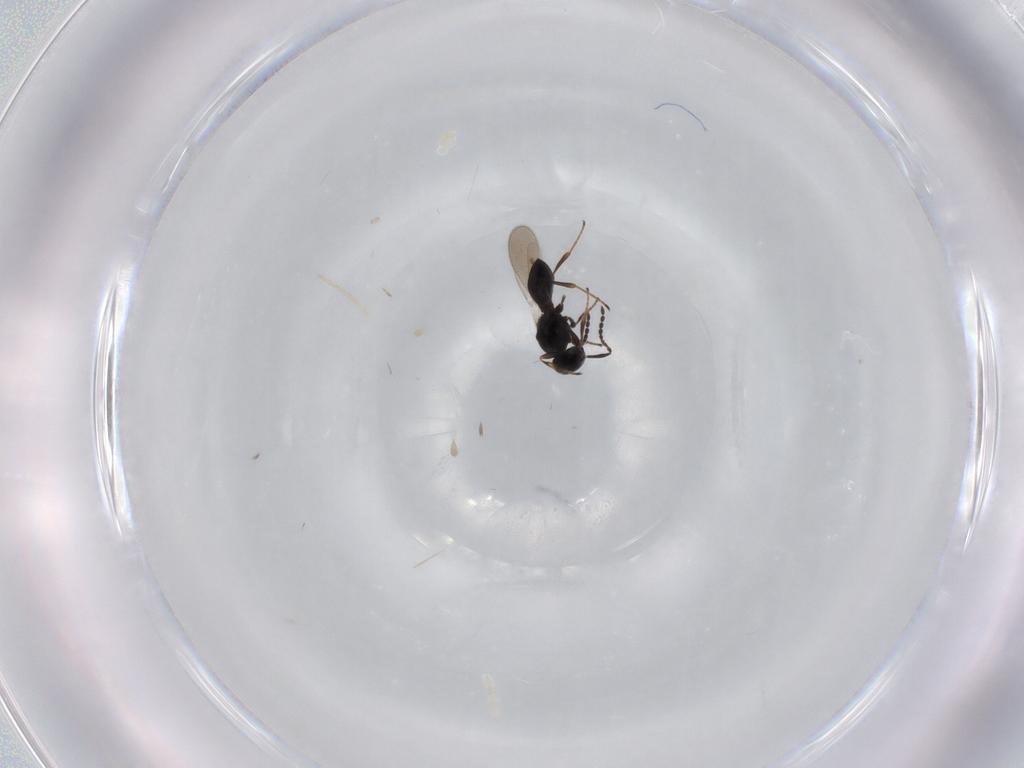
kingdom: Animalia
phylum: Arthropoda
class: Insecta
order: Hymenoptera
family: Platygastridae
